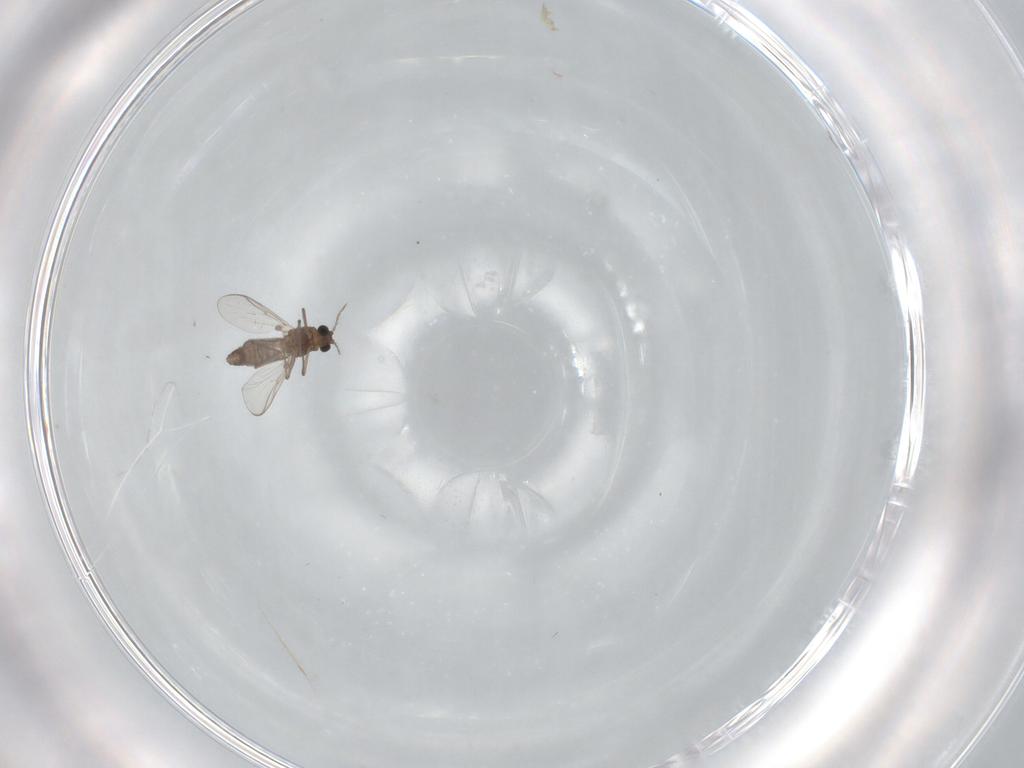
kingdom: Animalia
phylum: Arthropoda
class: Insecta
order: Diptera
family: Chironomidae
